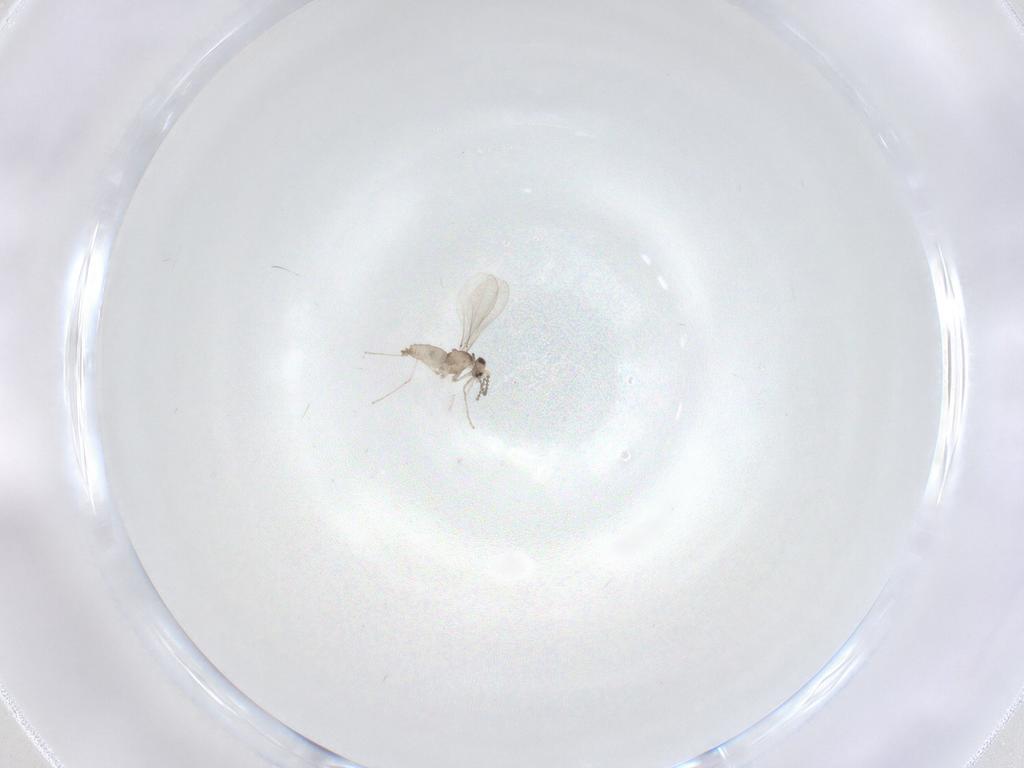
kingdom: Animalia
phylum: Arthropoda
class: Insecta
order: Diptera
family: Cecidomyiidae
